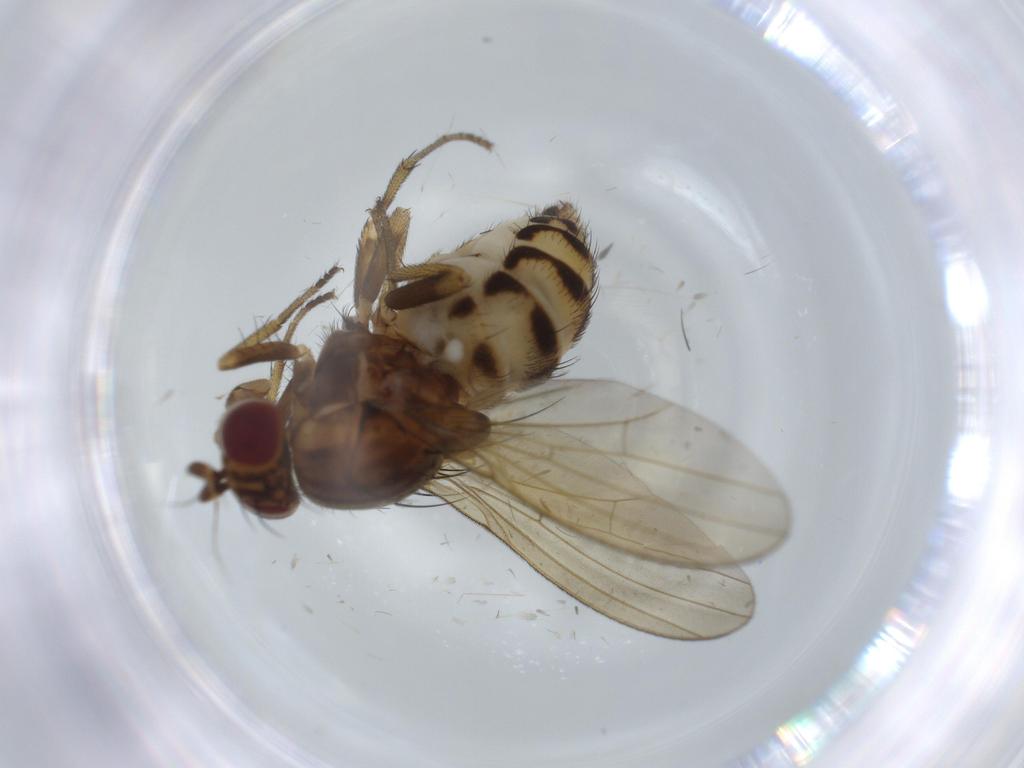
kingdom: Animalia
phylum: Arthropoda
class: Insecta
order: Diptera
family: Lauxaniidae
